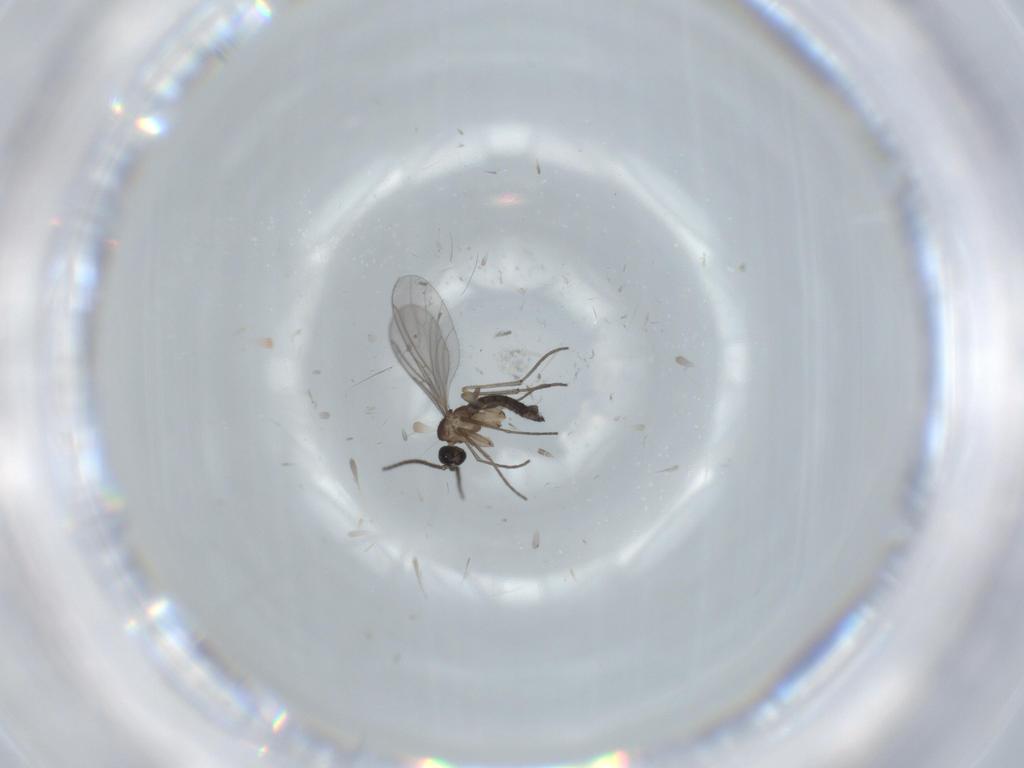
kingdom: Animalia
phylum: Arthropoda
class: Insecta
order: Diptera
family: Sciaridae
